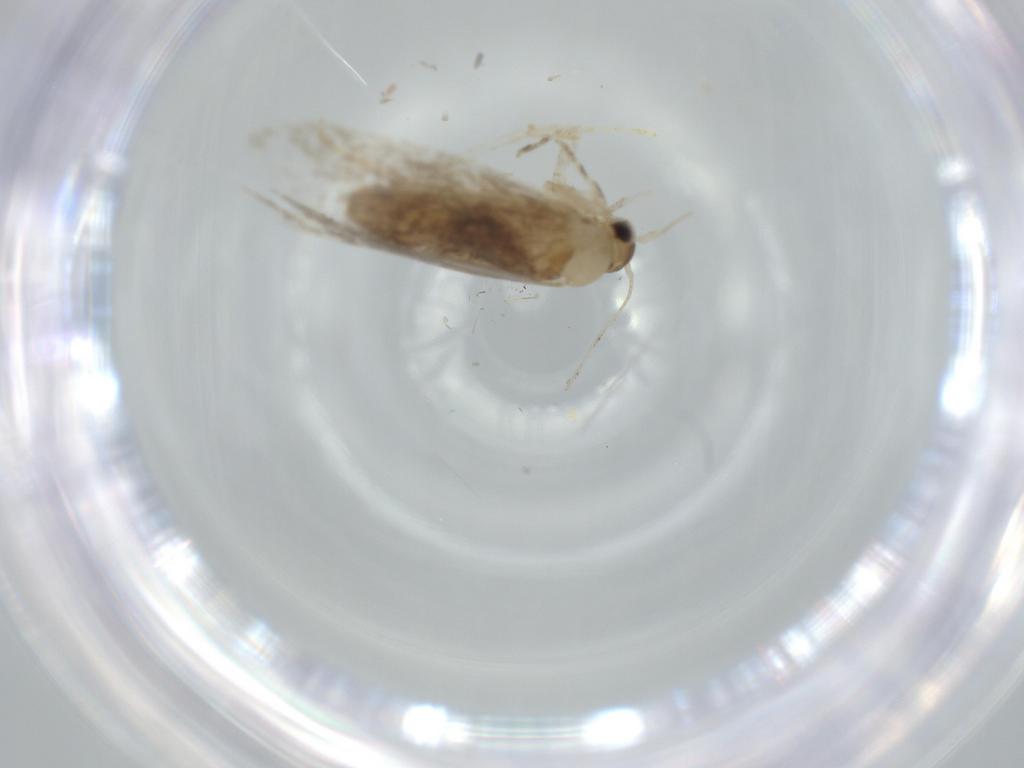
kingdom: Animalia
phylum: Arthropoda
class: Insecta
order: Lepidoptera
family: Tineidae
